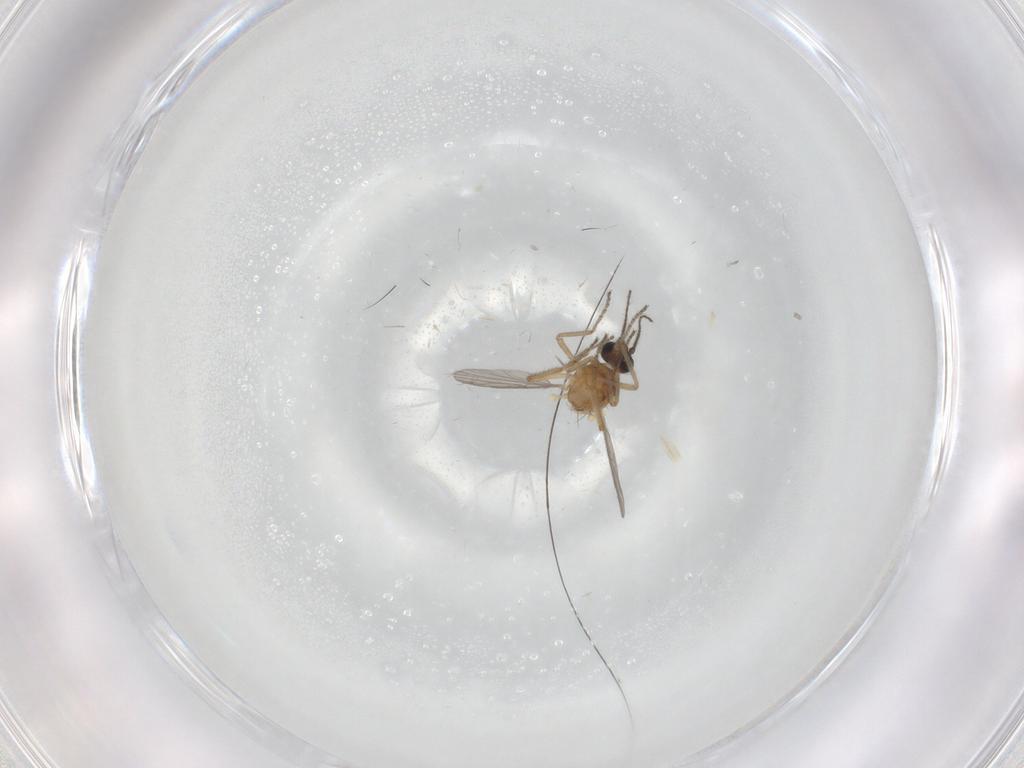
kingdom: Animalia
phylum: Arthropoda
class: Insecta
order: Diptera
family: Ceratopogonidae
